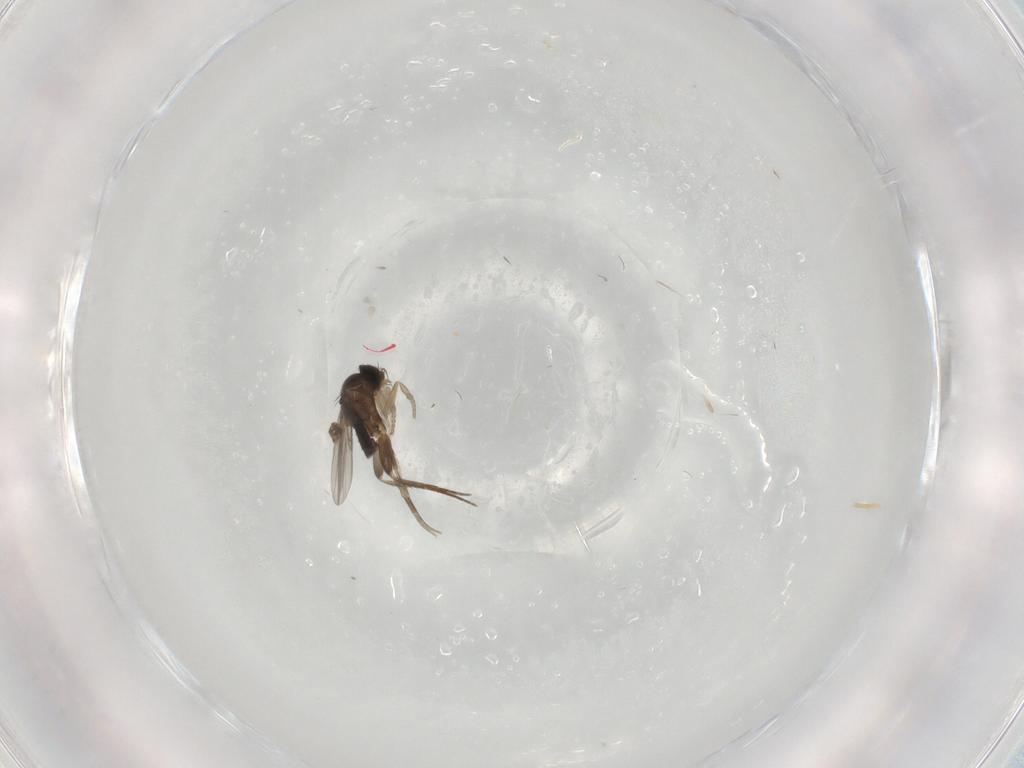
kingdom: Animalia
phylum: Arthropoda
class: Insecta
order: Diptera
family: Phoridae
